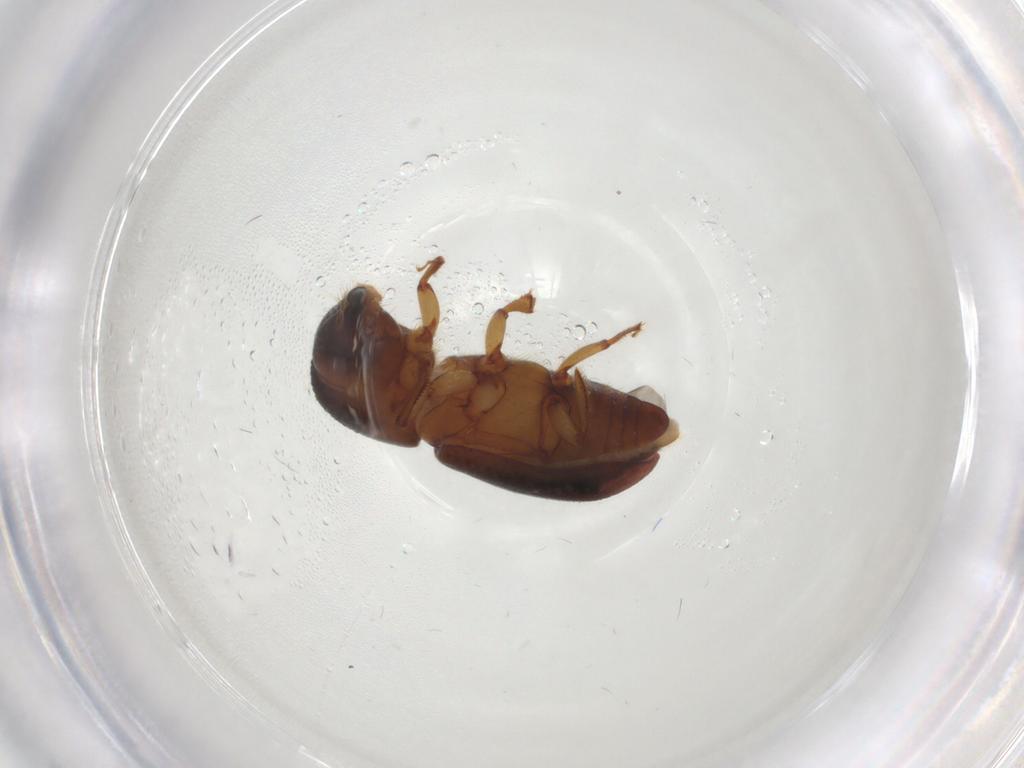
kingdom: Animalia
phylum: Arthropoda
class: Insecta
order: Coleoptera
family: Curculionidae
